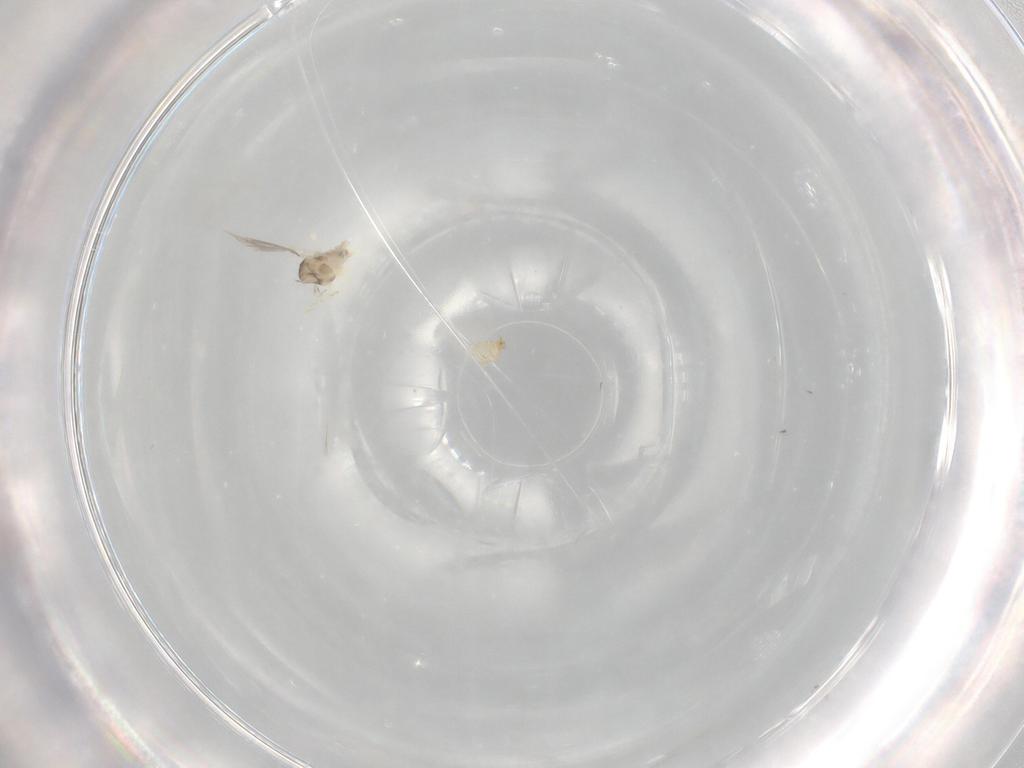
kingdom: Animalia
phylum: Arthropoda
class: Insecta
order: Diptera
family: Cecidomyiidae
